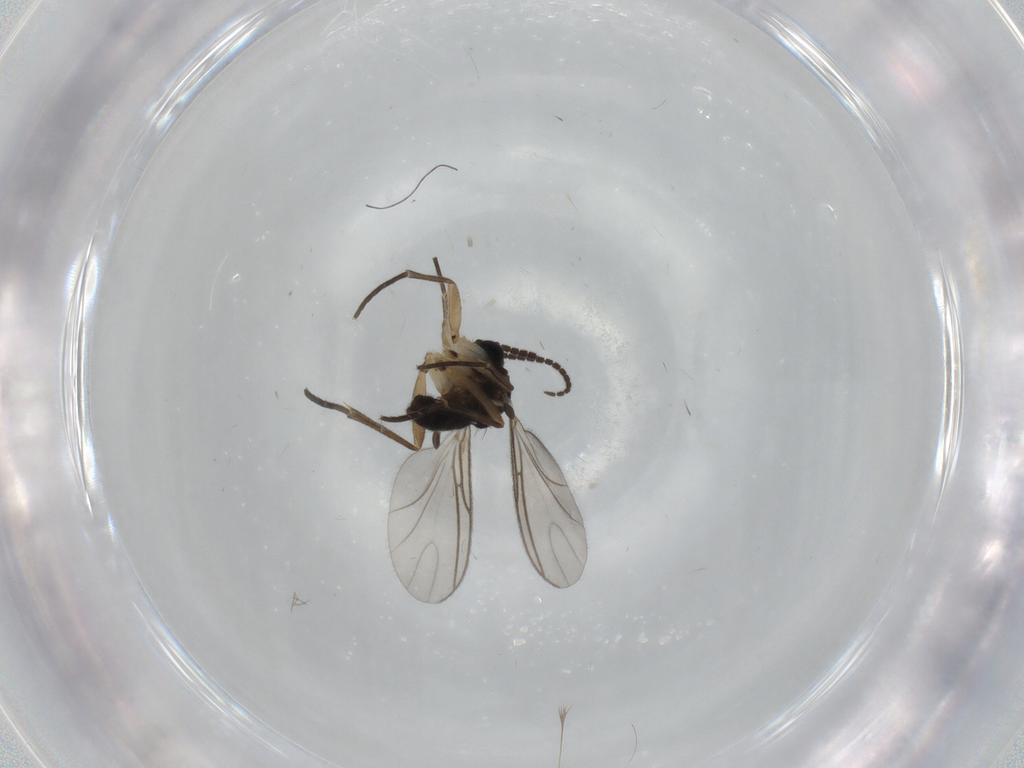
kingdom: Animalia
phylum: Arthropoda
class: Insecta
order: Diptera
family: Sciaridae
